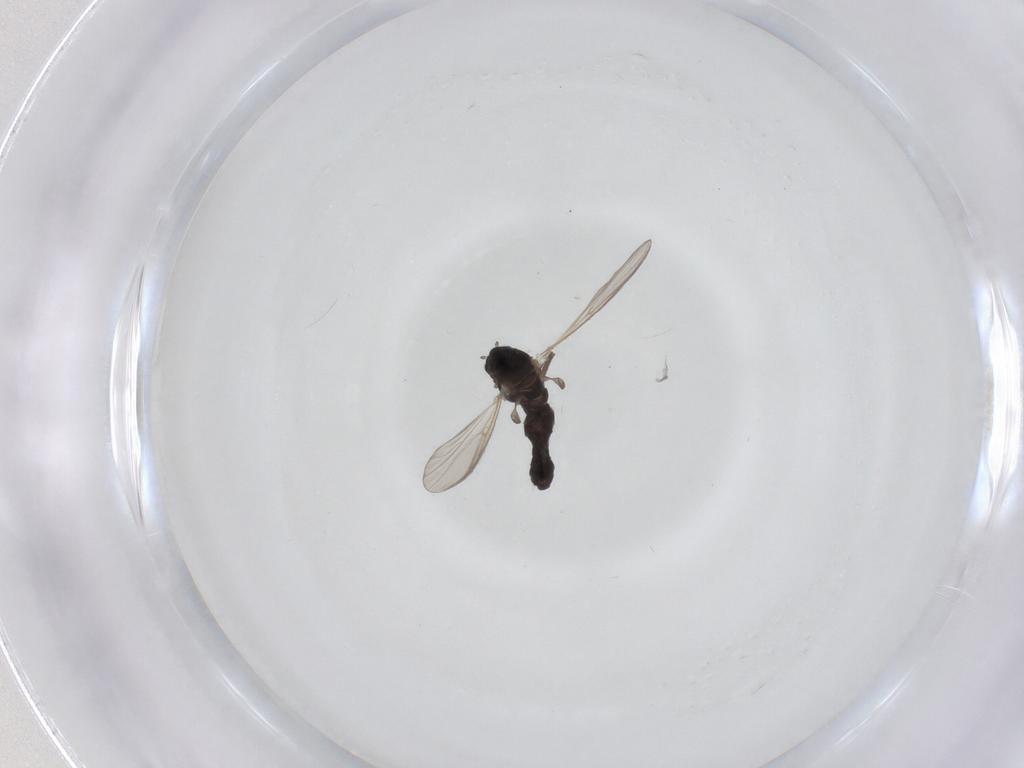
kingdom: Animalia
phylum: Arthropoda
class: Insecta
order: Diptera
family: Chironomidae
